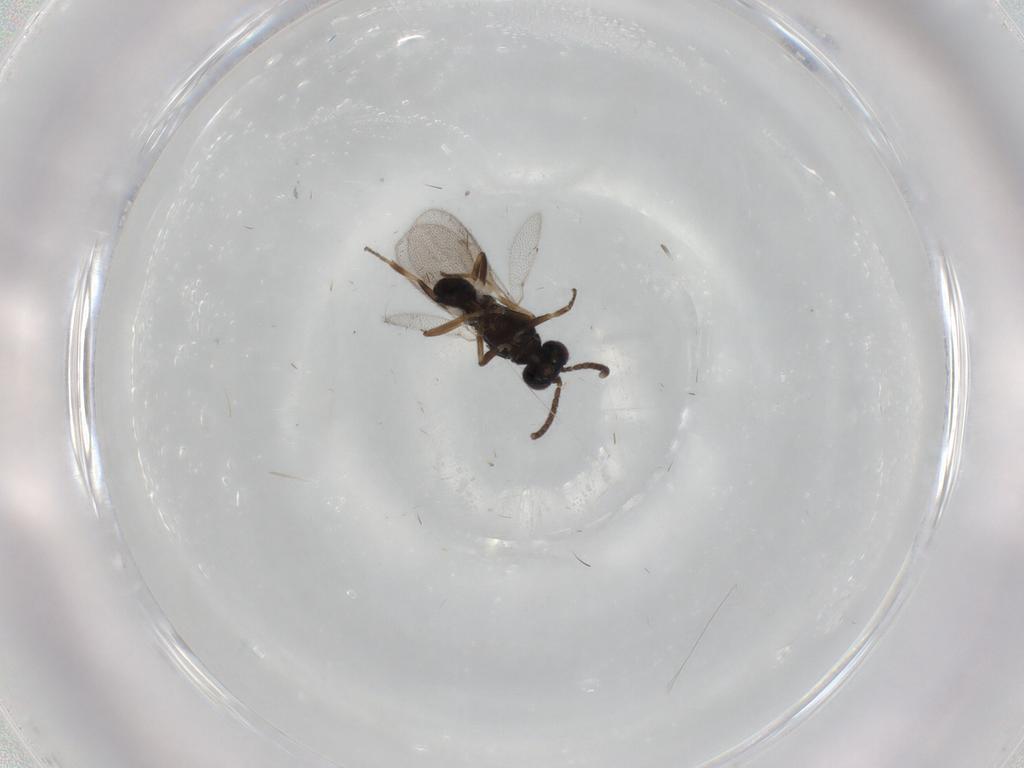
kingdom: Animalia
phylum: Arthropoda
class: Insecta
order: Hymenoptera
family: Eupelmidae
